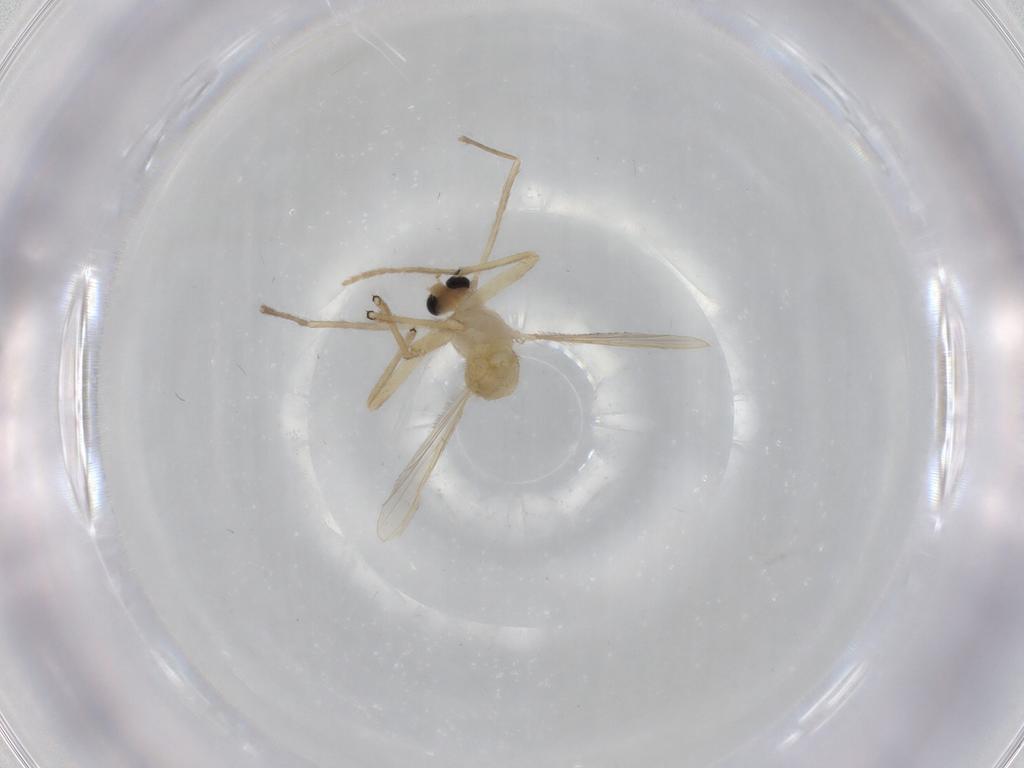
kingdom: Animalia
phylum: Arthropoda
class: Insecta
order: Diptera
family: Chironomidae
